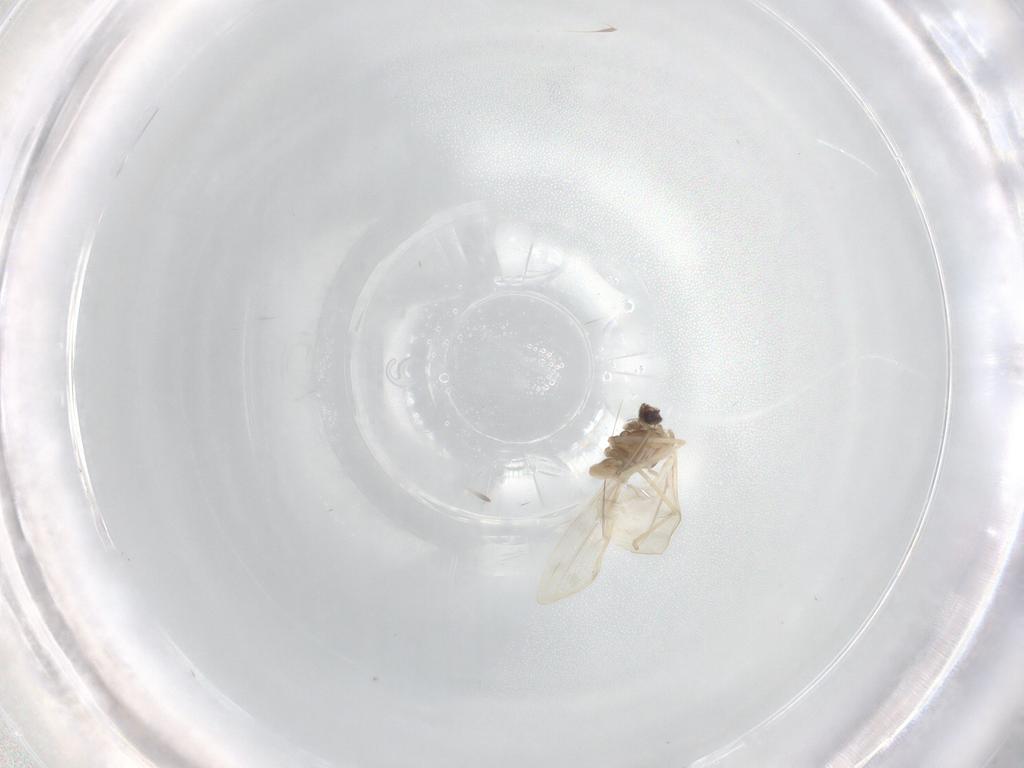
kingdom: Animalia
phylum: Arthropoda
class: Insecta
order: Diptera
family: Cecidomyiidae
